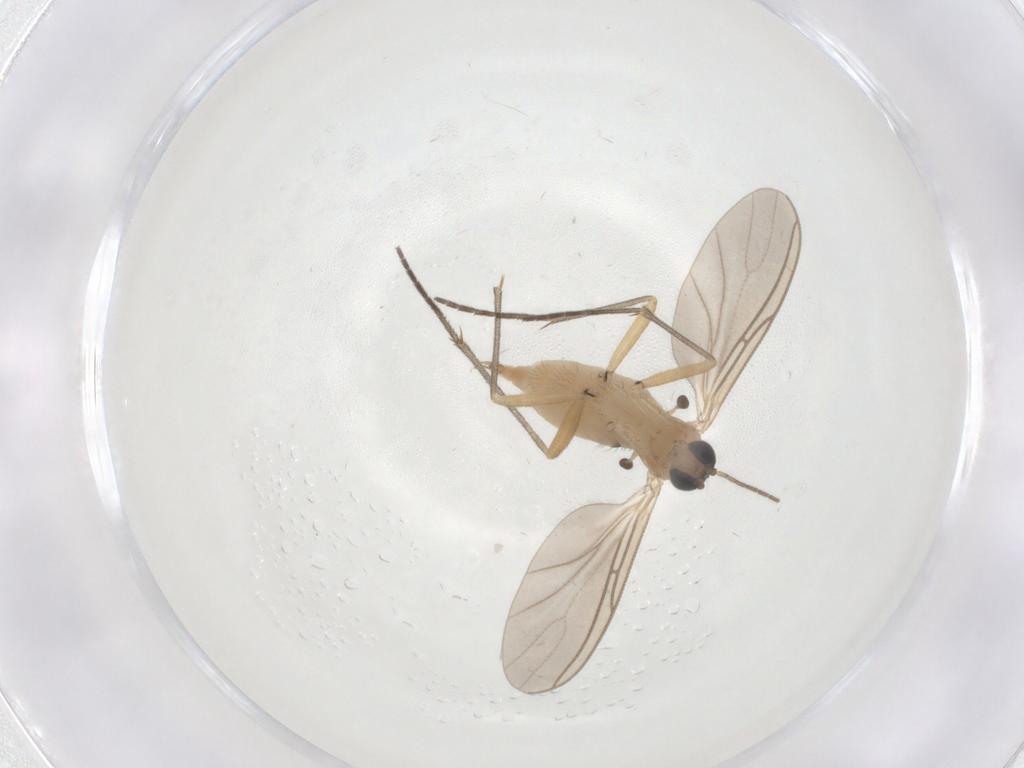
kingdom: Animalia
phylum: Arthropoda
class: Insecta
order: Diptera
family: Sciaridae
